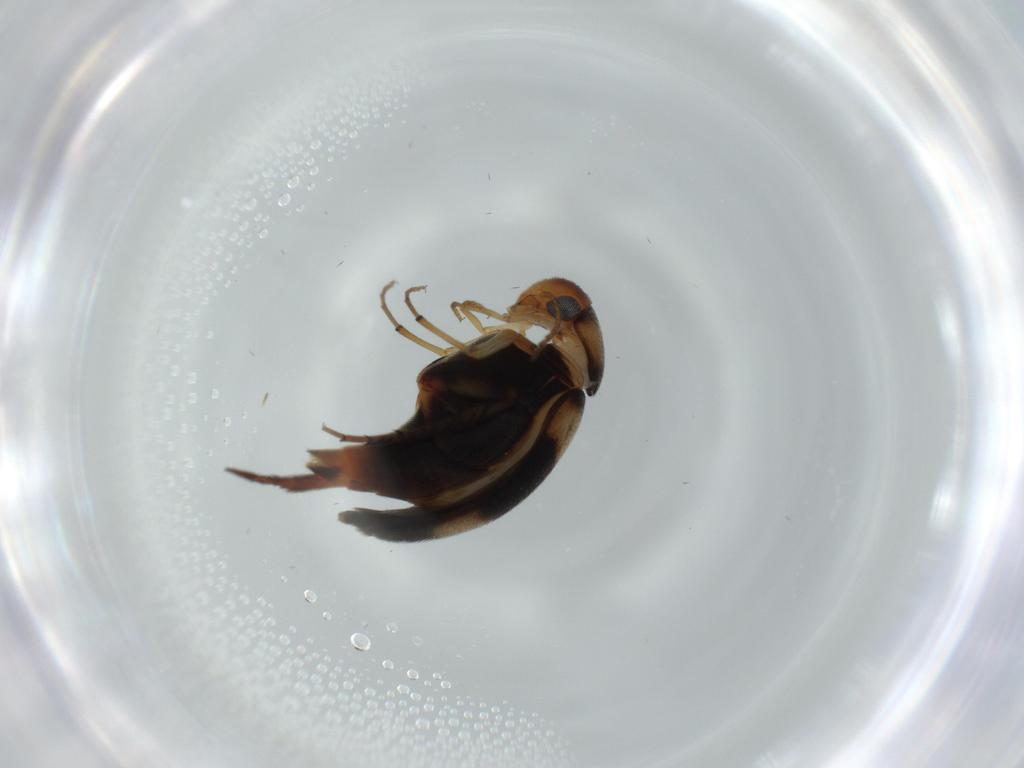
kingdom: Animalia
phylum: Arthropoda
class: Insecta
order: Coleoptera
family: Mordellidae
